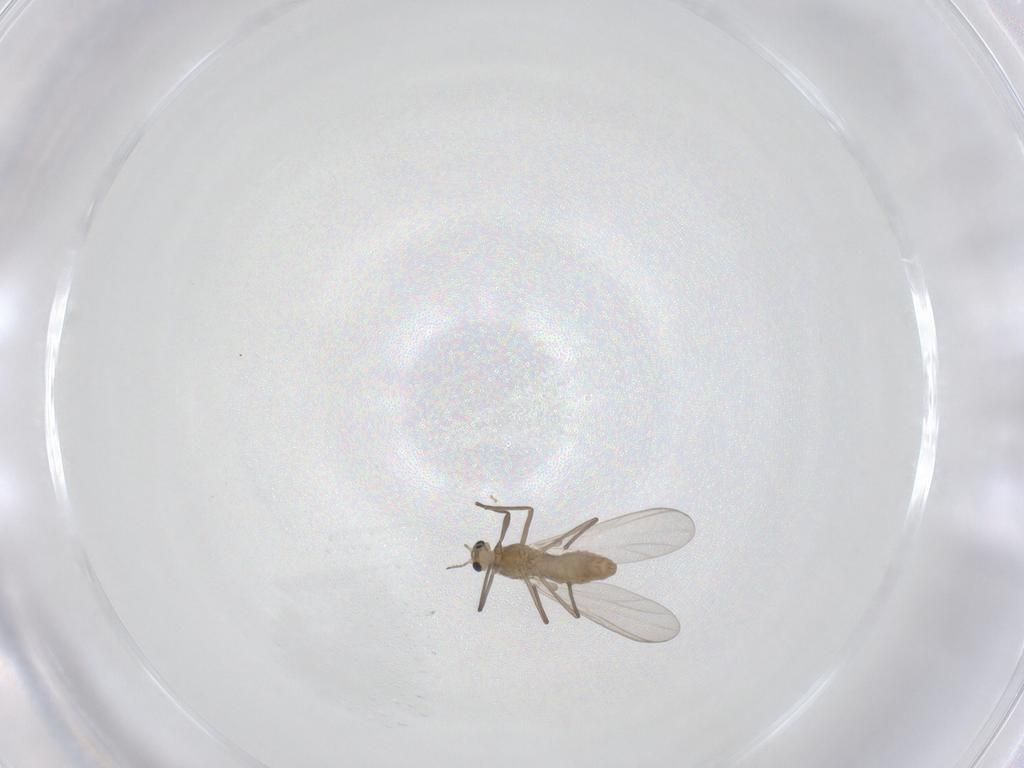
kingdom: Animalia
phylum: Arthropoda
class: Insecta
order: Diptera
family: Chironomidae
